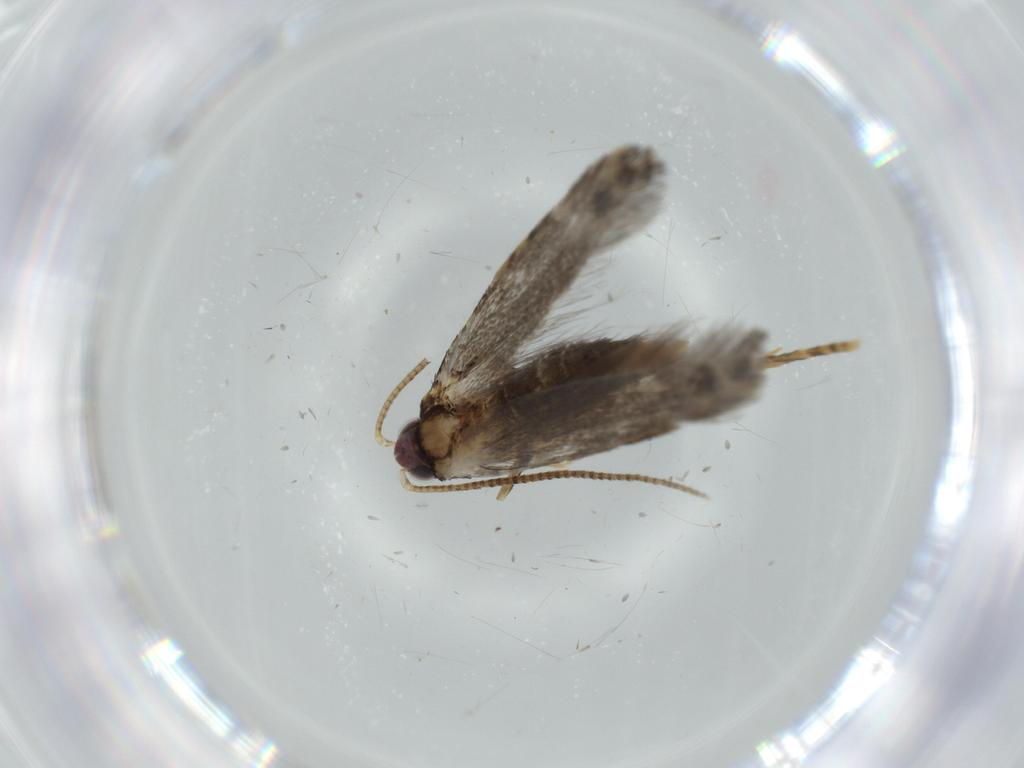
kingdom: Animalia
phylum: Arthropoda
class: Insecta
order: Lepidoptera
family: Tineidae
